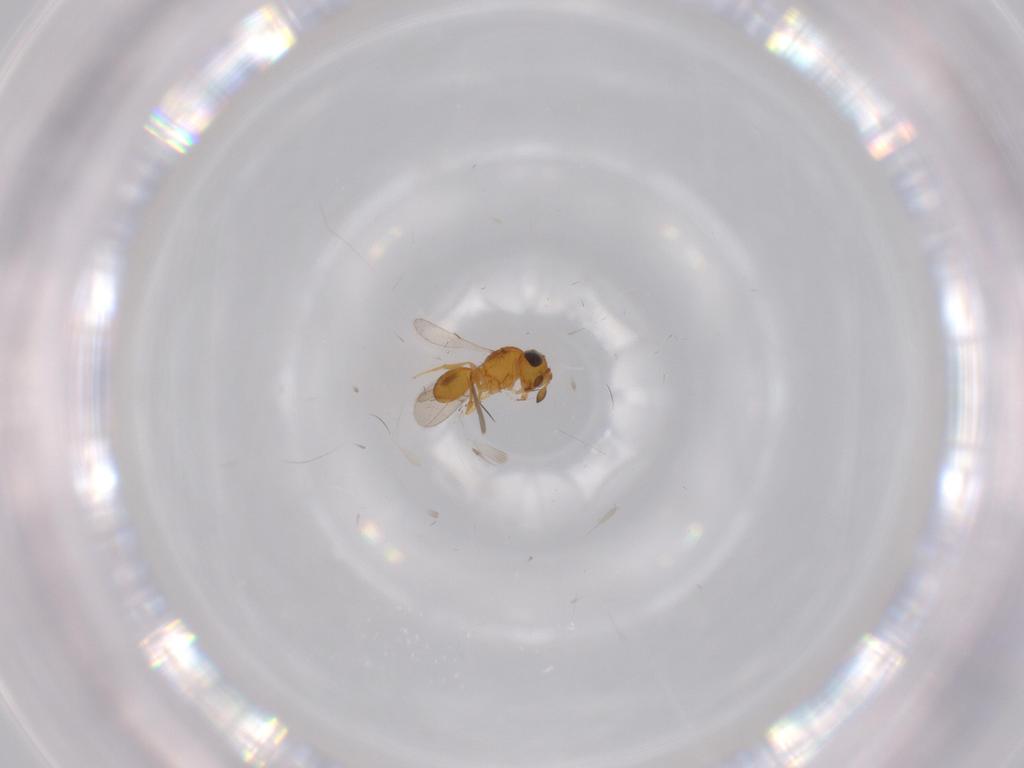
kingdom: Animalia
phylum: Arthropoda
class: Insecta
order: Hymenoptera
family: Scelionidae
